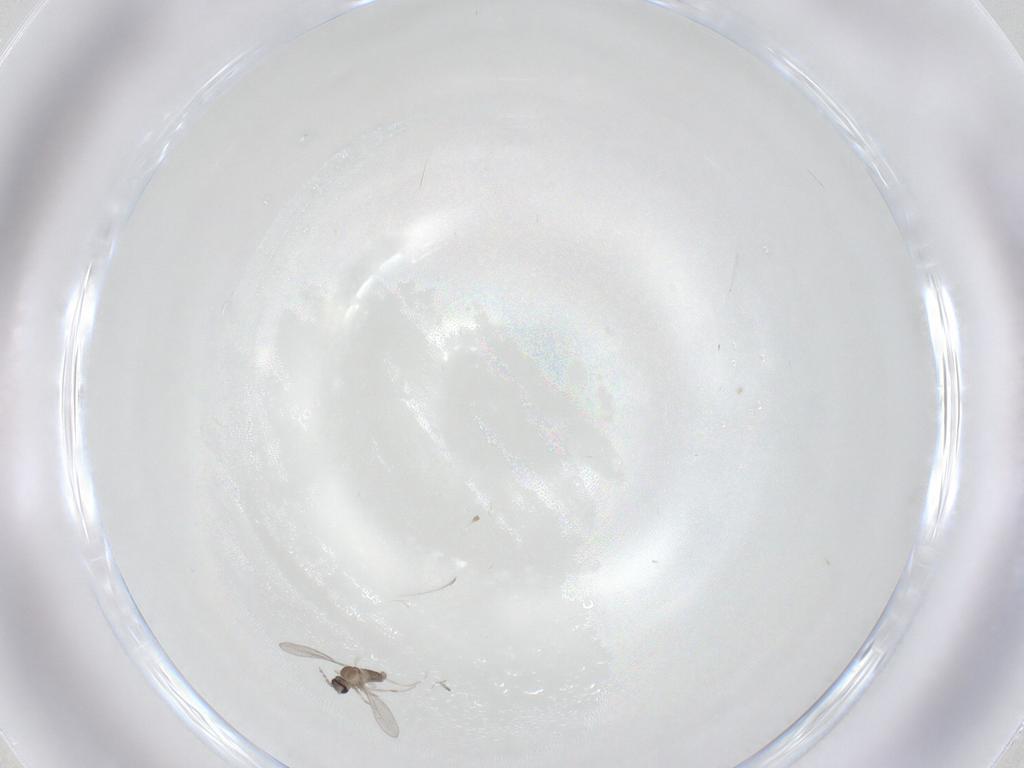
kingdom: Animalia
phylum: Arthropoda
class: Insecta
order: Diptera
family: Cecidomyiidae
